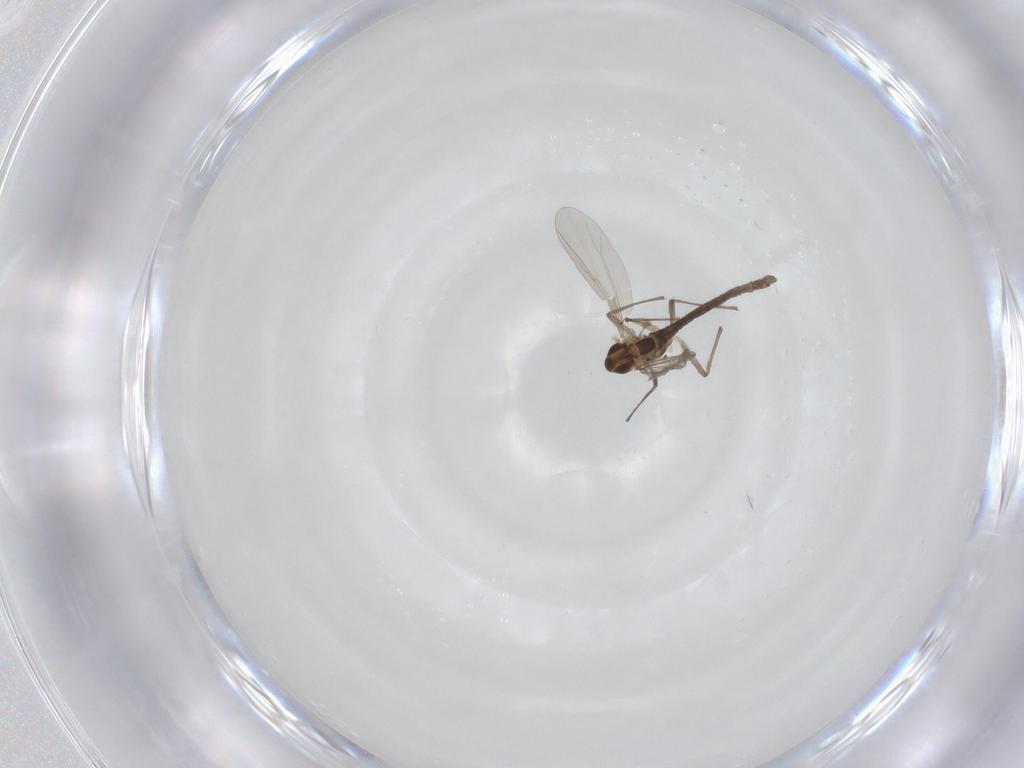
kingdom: Animalia
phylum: Arthropoda
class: Insecta
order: Diptera
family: Chironomidae
